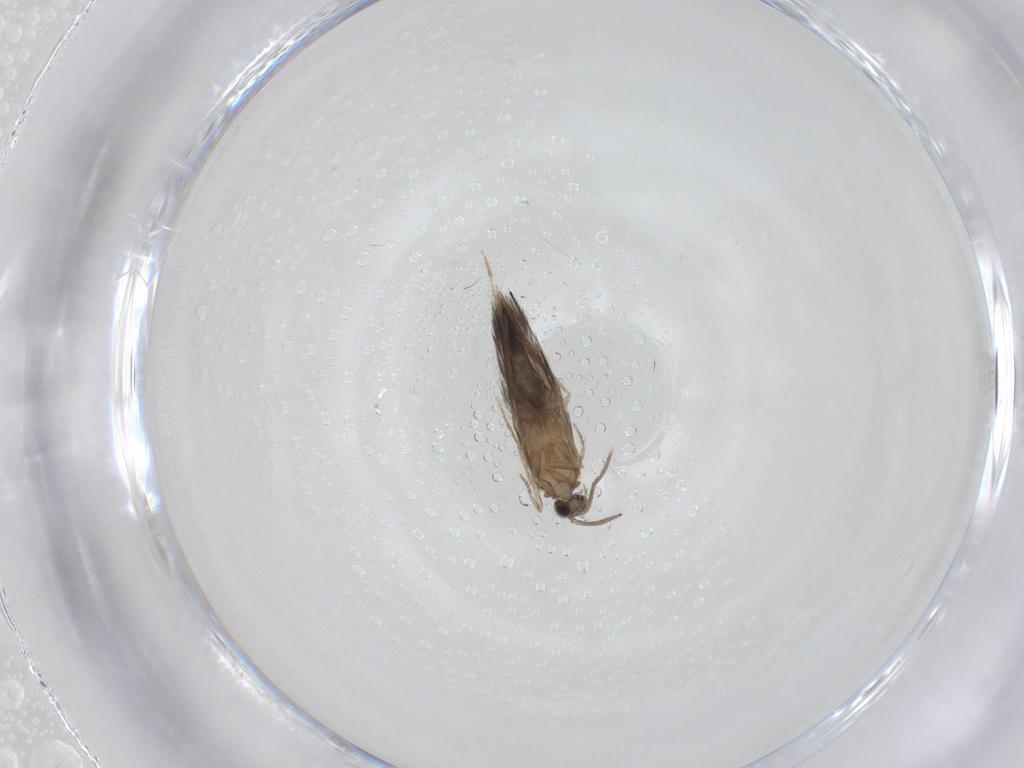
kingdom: Animalia
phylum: Arthropoda
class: Insecta
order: Trichoptera
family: Hydroptilidae
